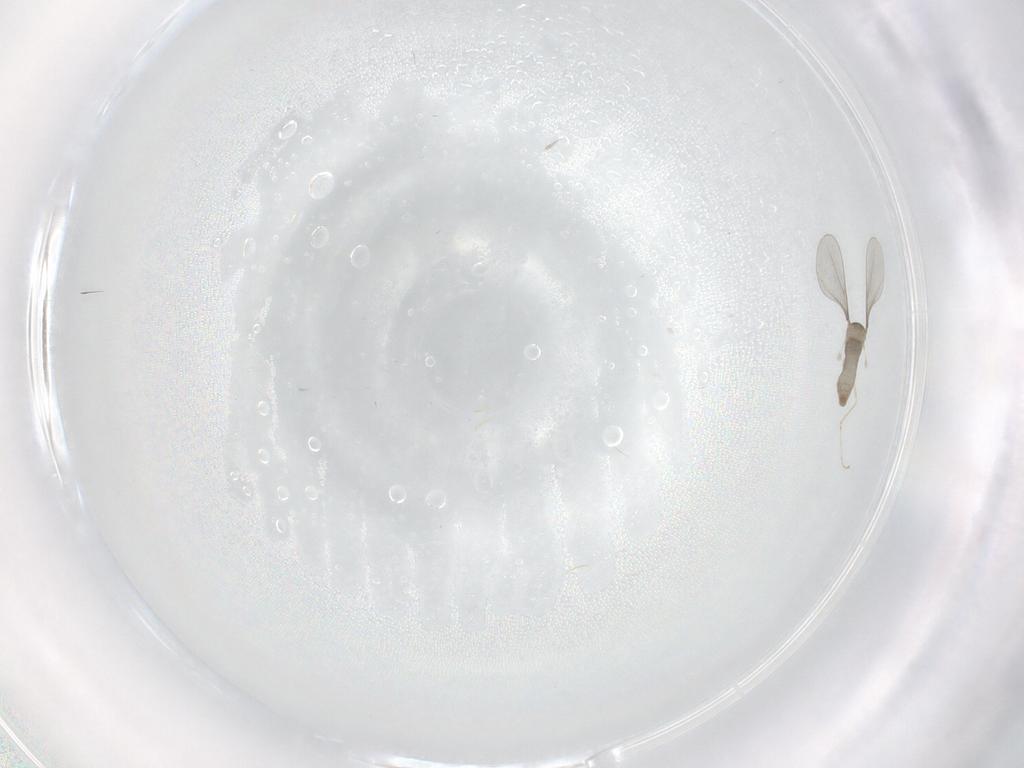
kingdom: Animalia
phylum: Arthropoda
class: Insecta
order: Diptera
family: Cecidomyiidae
